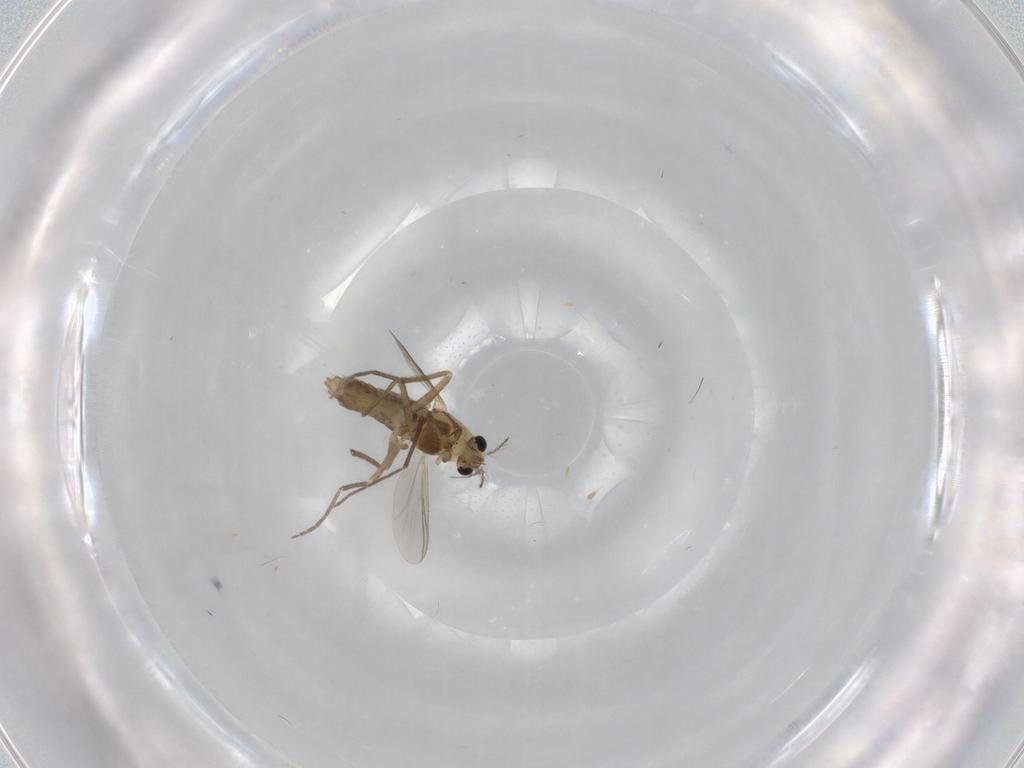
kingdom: Animalia
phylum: Arthropoda
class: Insecta
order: Diptera
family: Chironomidae
